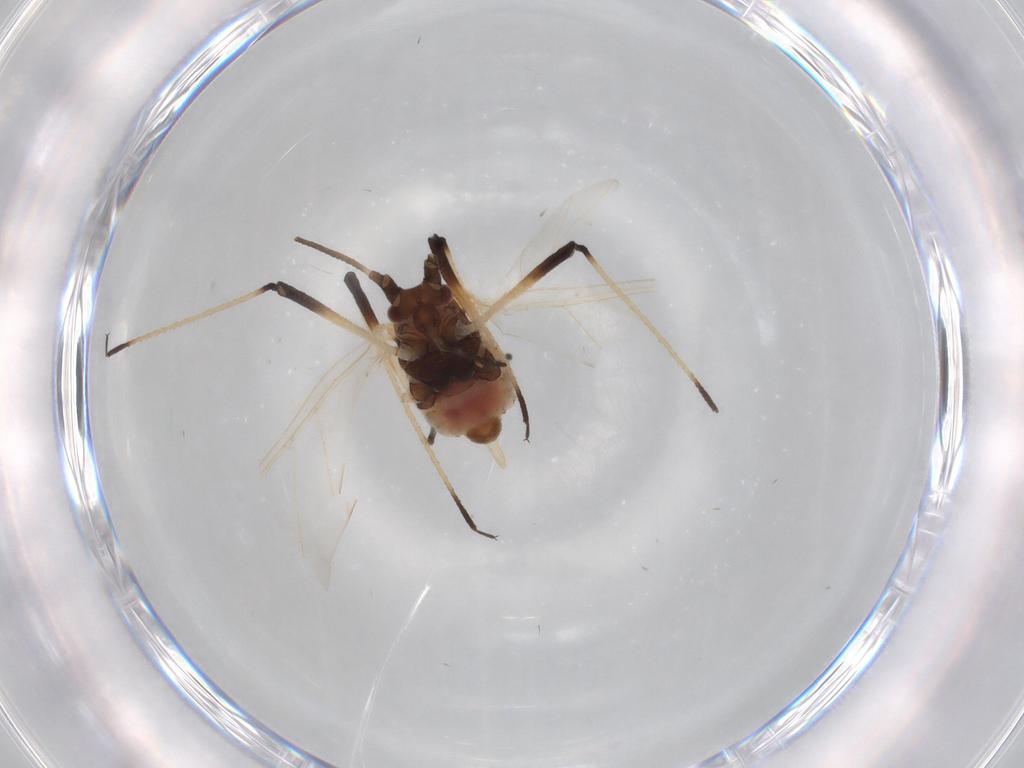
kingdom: Animalia
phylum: Arthropoda
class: Insecta
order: Hemiptera
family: Aphididae
